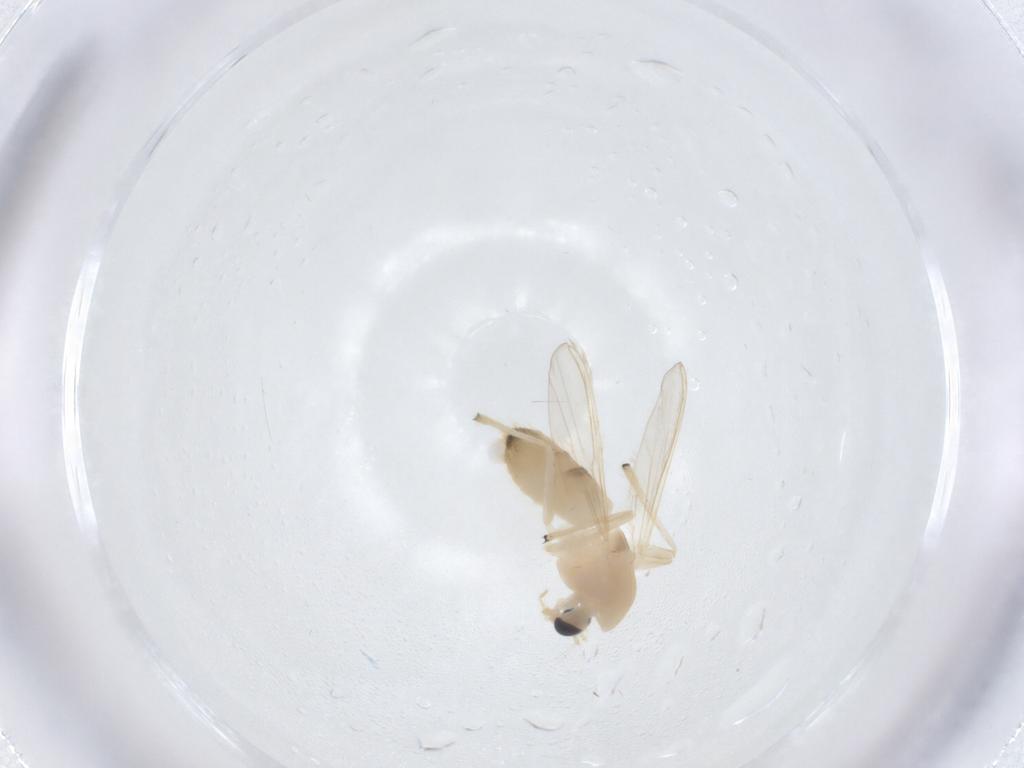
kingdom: Animalia
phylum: Arthropoda
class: Insecta
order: Diptera
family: Chironomidae
